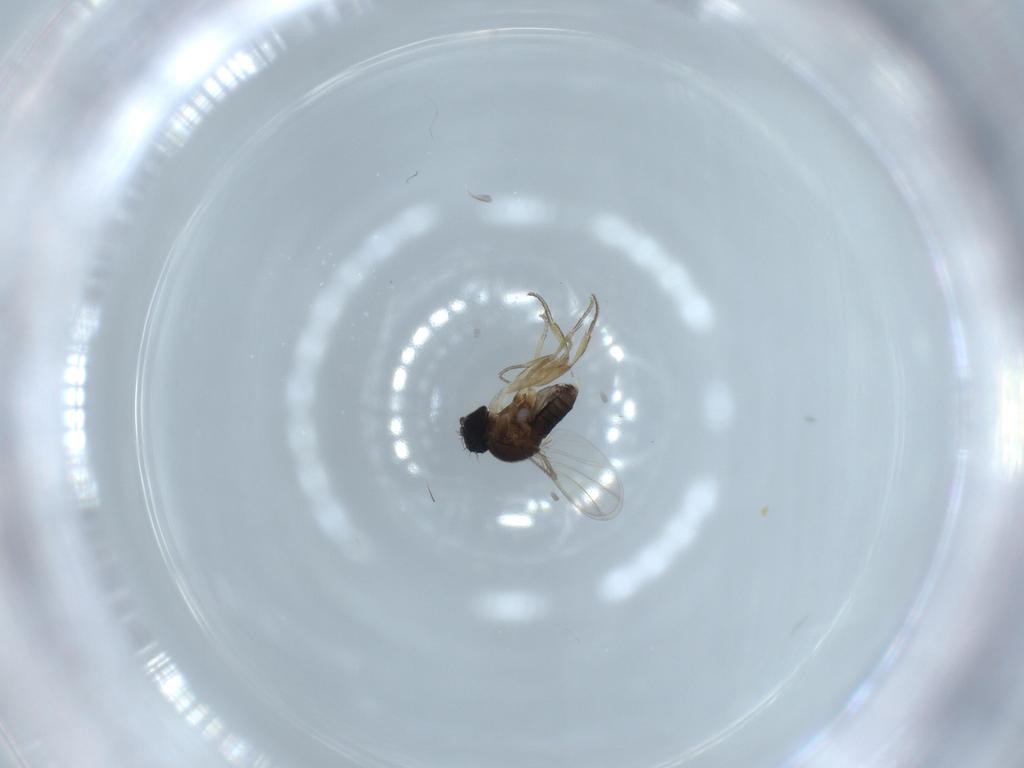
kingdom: Animalia
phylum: Arthropoda
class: Insecta
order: Diptera
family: Phoridae
